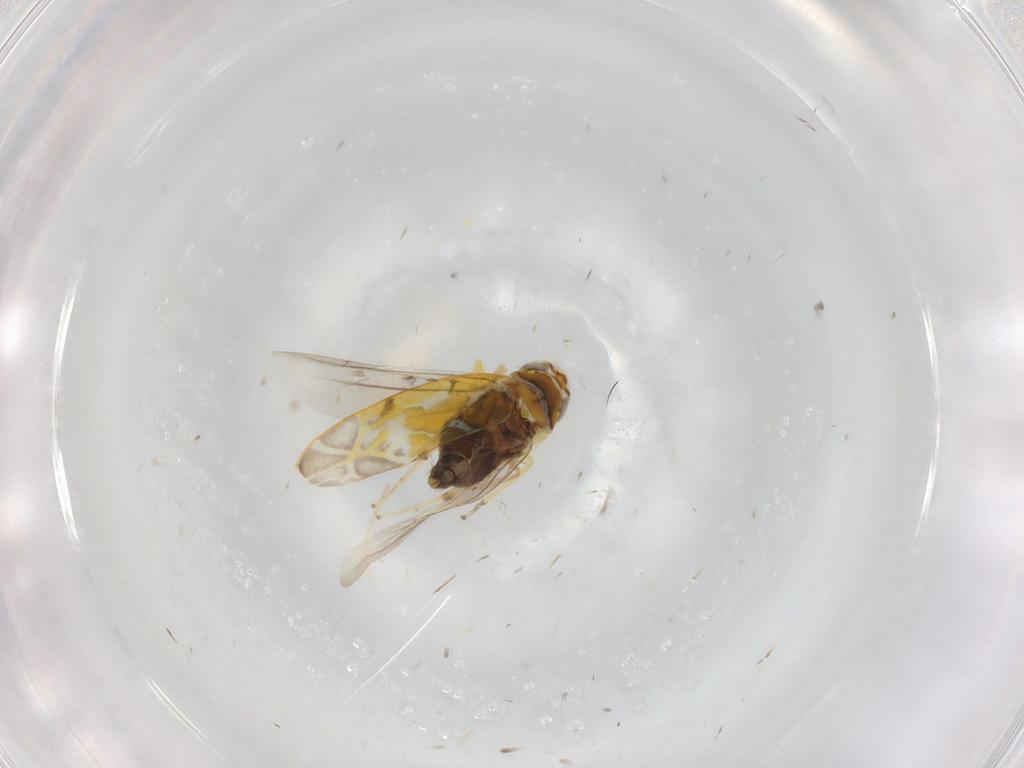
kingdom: Animalia
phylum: Arthropoda
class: Insecta
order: Hemiptera
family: Cicadellidae
